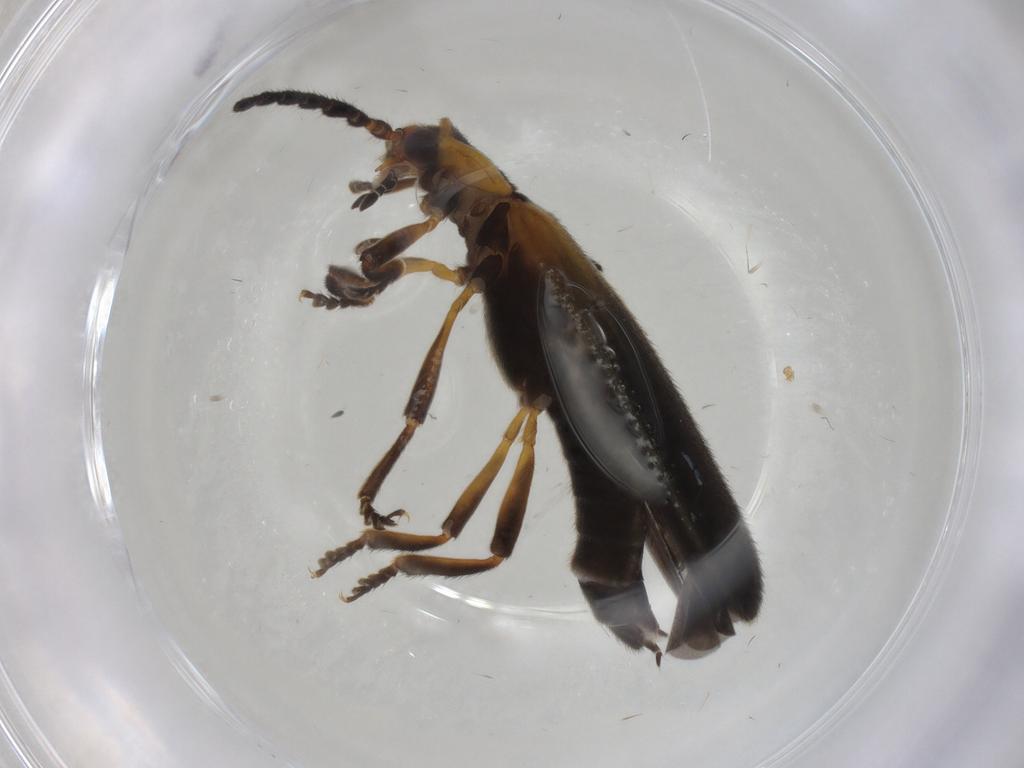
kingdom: Animalia
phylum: Arthropoda
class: Insecta
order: Coleoptera
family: Lycidae
